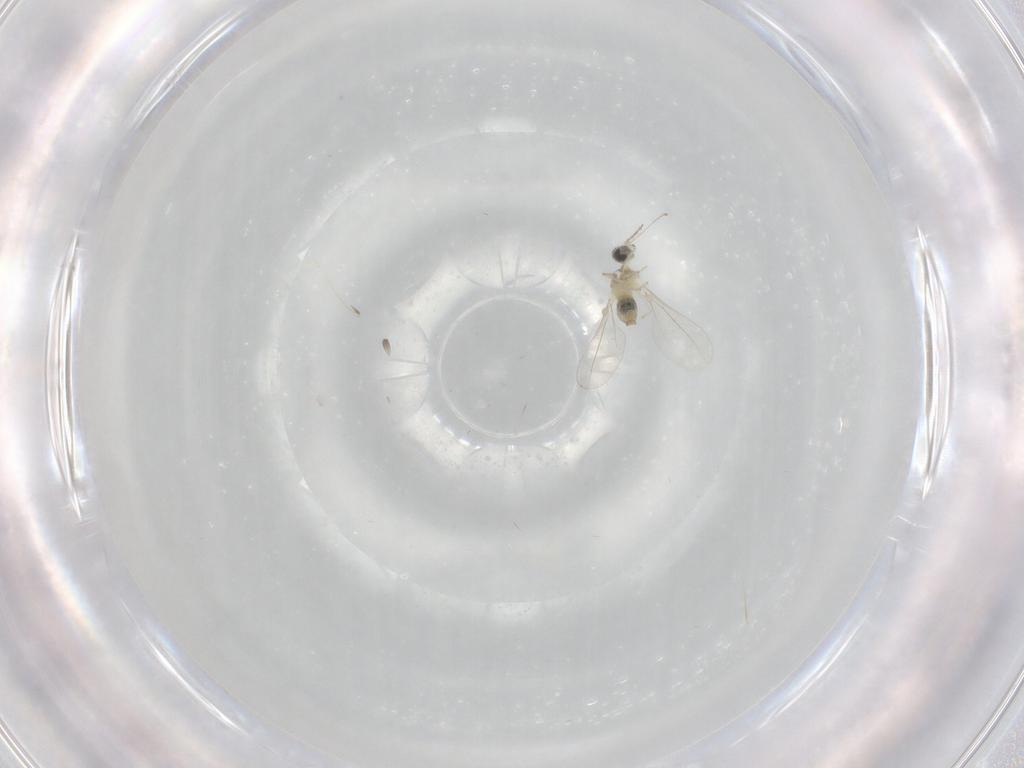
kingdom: Animalia
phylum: Arthropoda
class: Insecta
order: Diptera
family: Cecidomyiidae
